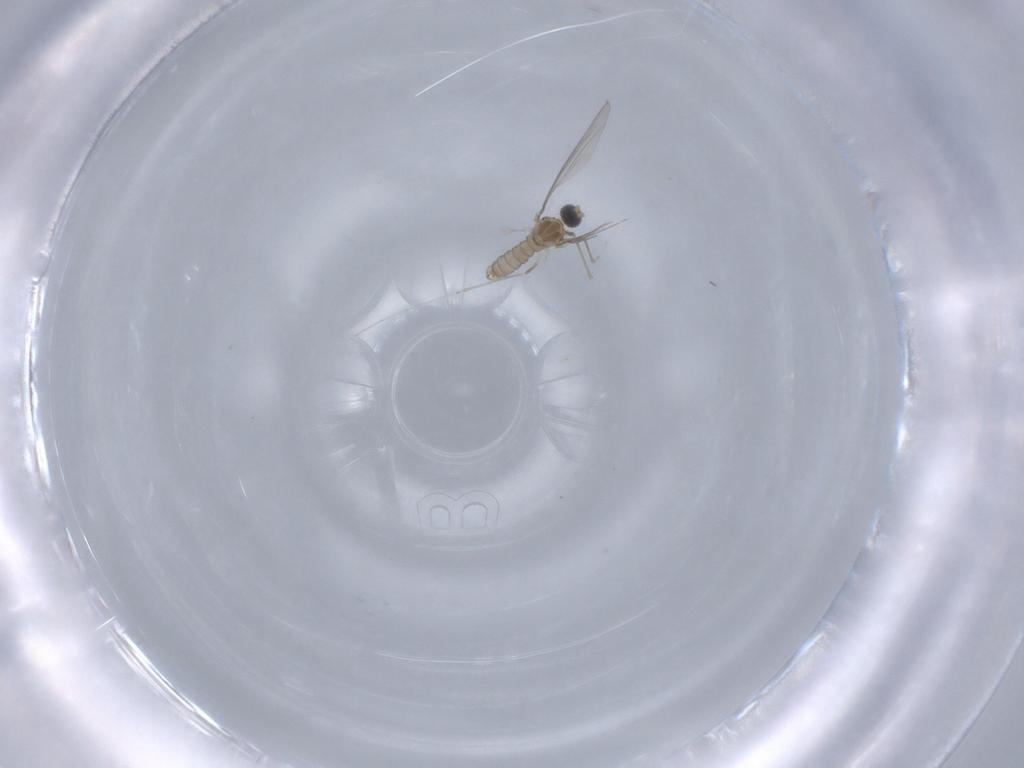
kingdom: Animalia
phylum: Arthropoda
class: Insecta
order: Diptera
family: Cecidomyiidae
